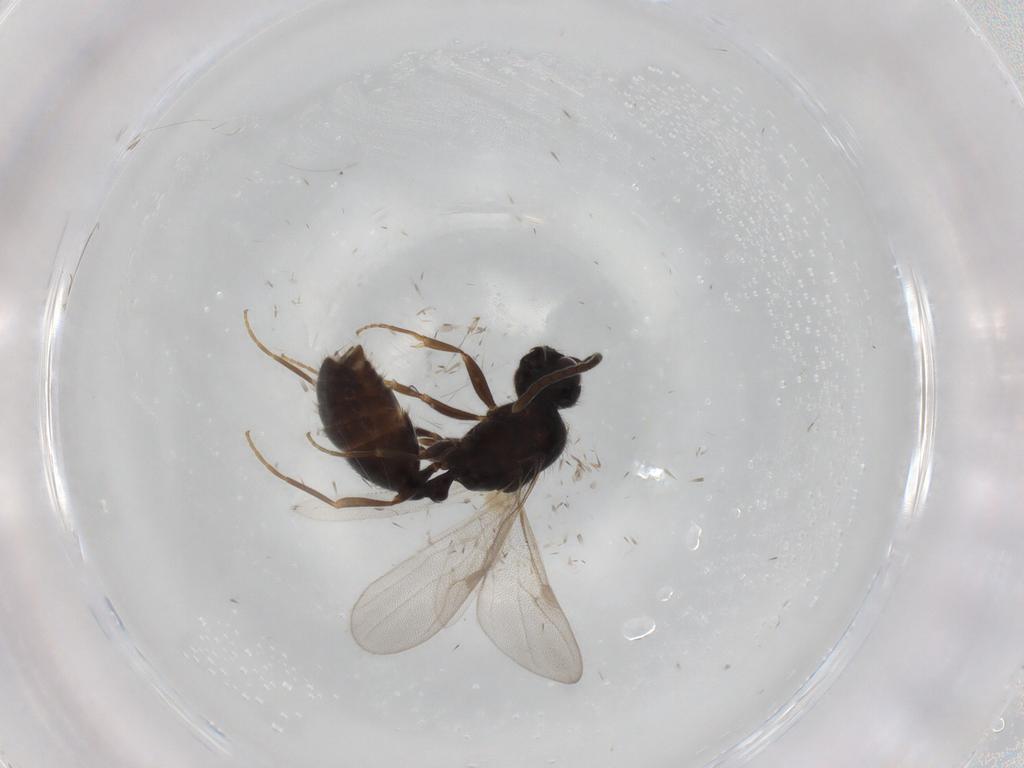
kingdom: Animalia
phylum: Arthropoda
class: Insecta
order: Hymenoptera
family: Formicidae
